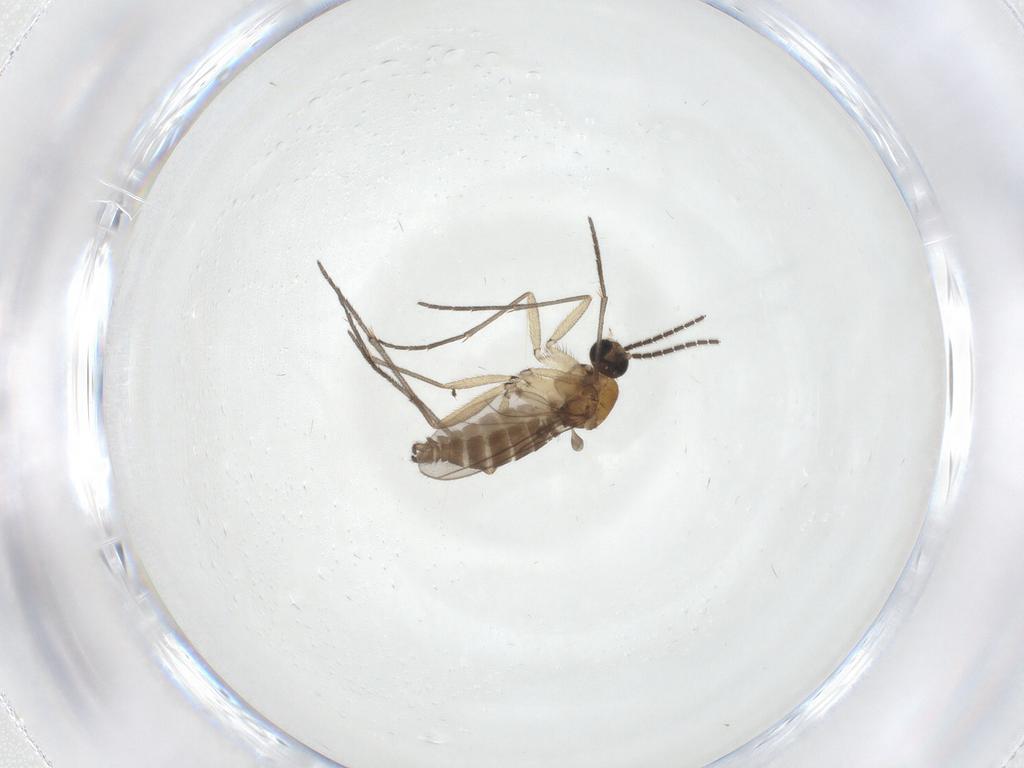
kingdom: Animalia
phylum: Arthropoda
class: Insecta
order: Diptera
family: Sciaridae
